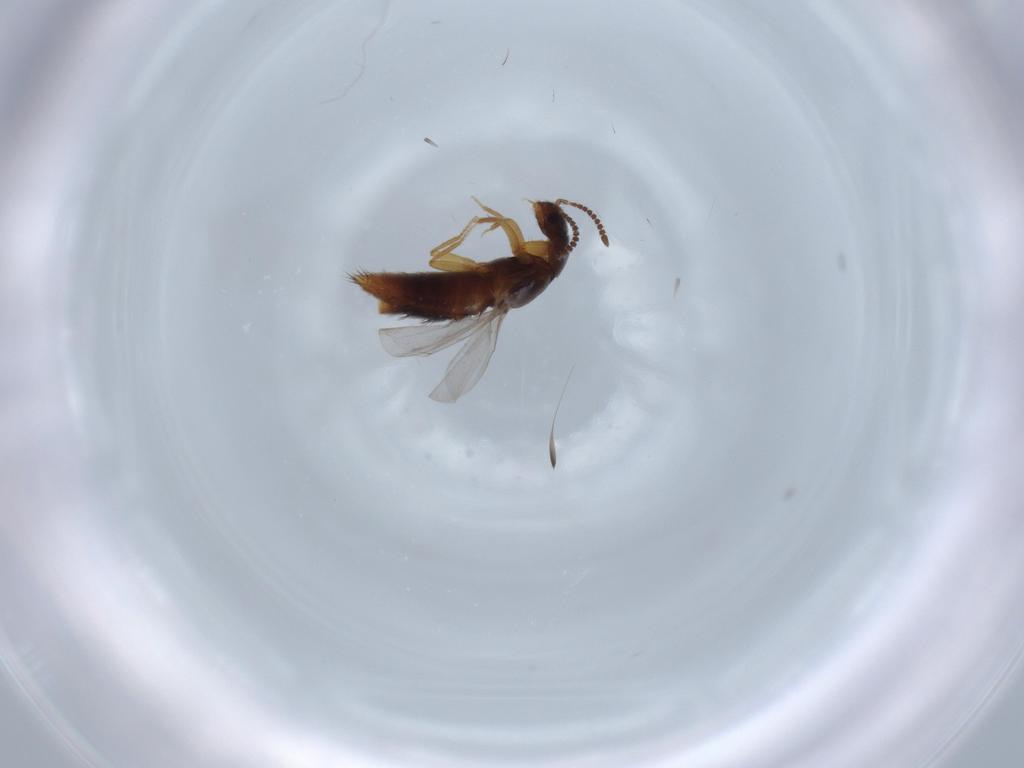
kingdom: Animalia
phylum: Arthropoda
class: Insecta
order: Coleoptera
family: Staphylinidae
